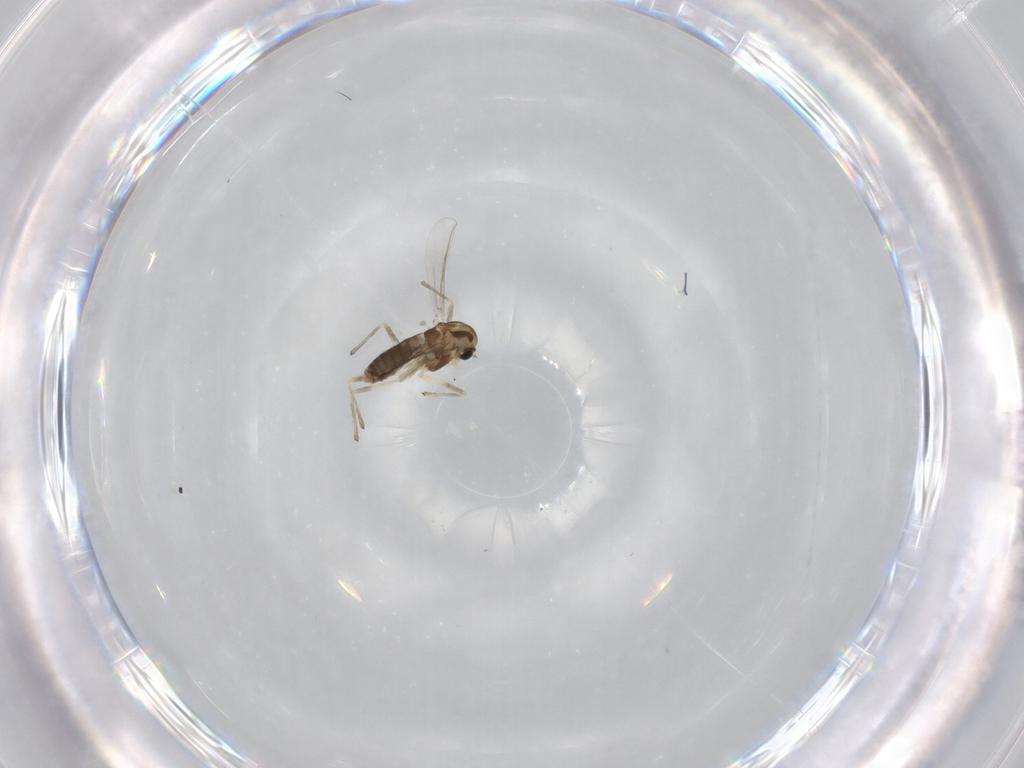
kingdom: Animalia
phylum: Arthropoda
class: Insecta
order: Diptera
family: Chironomidae
